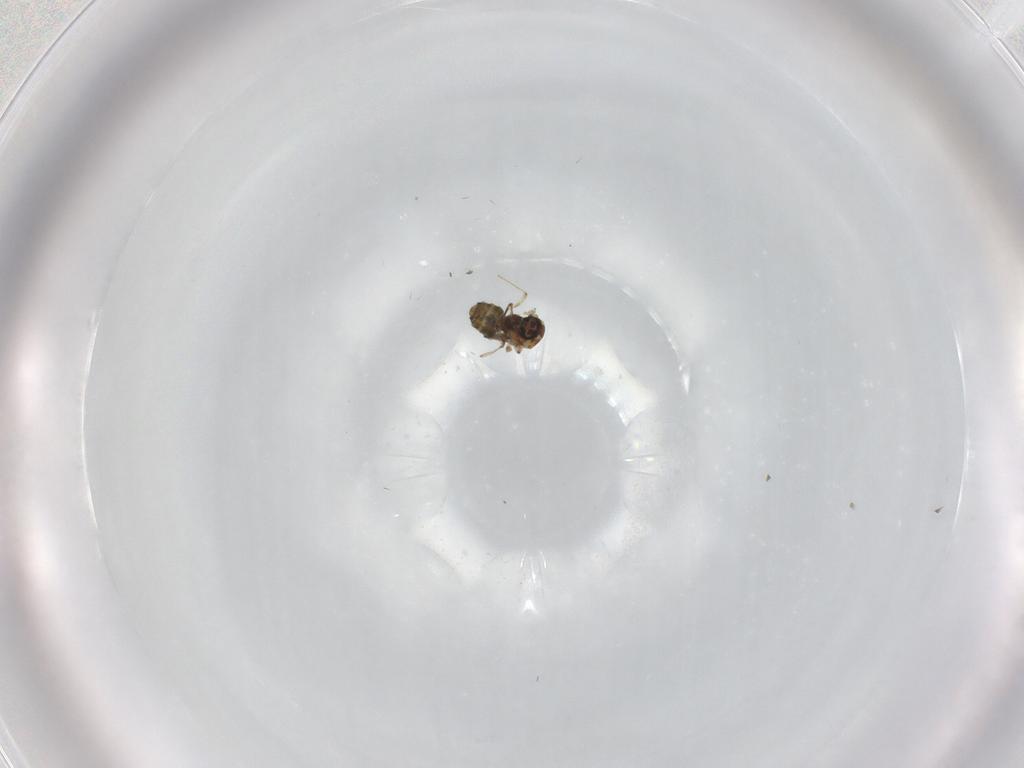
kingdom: Animalia
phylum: Arthropoda
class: Insecta
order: Diptera
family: Ceratopogonidae
